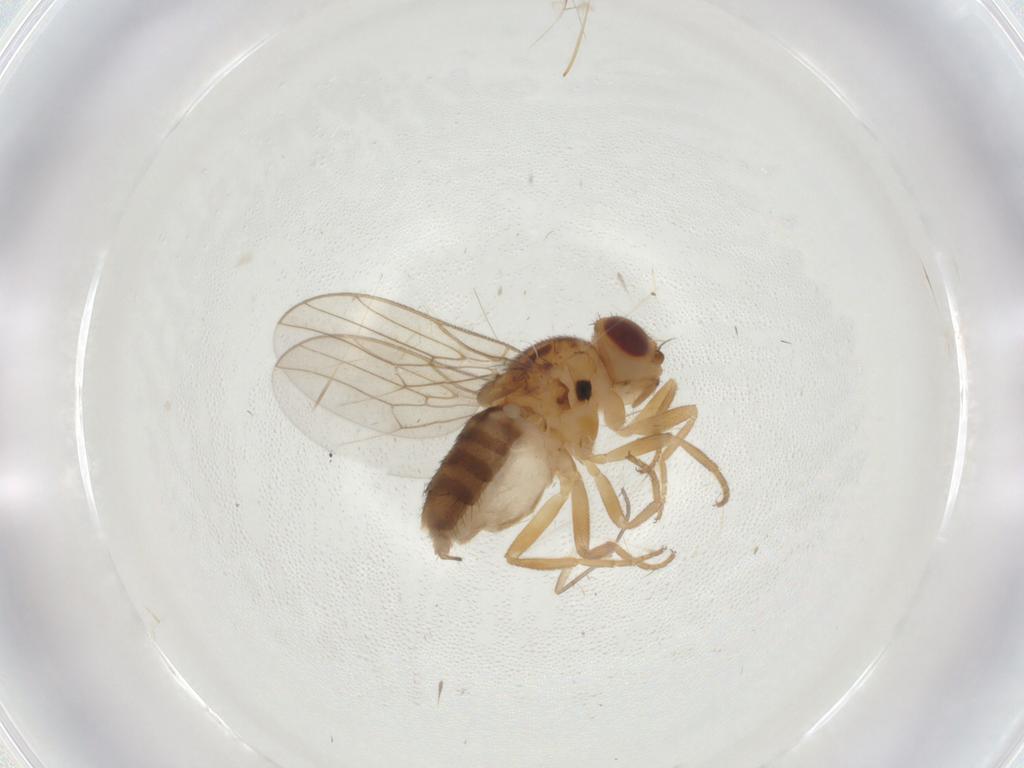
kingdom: Animalia
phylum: Arthropoda
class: Insecta
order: Diptera
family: Chloropidae
